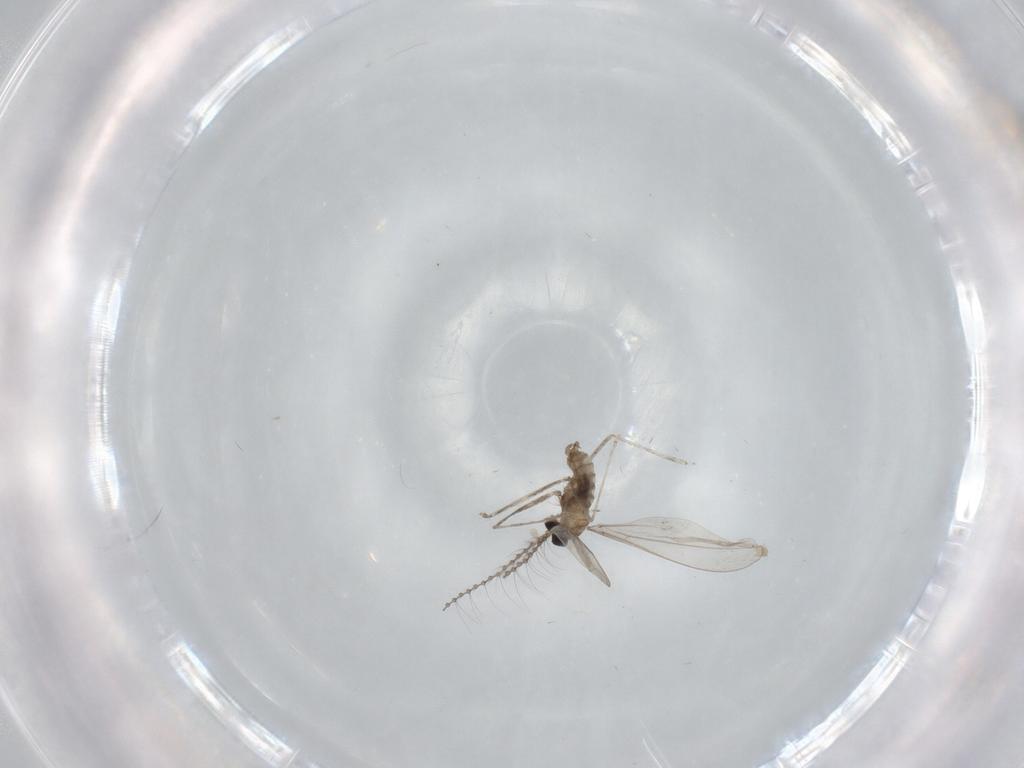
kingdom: Animalia
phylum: Arthropoda
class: Insecta
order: Diptera
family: Cecidomyiidae
